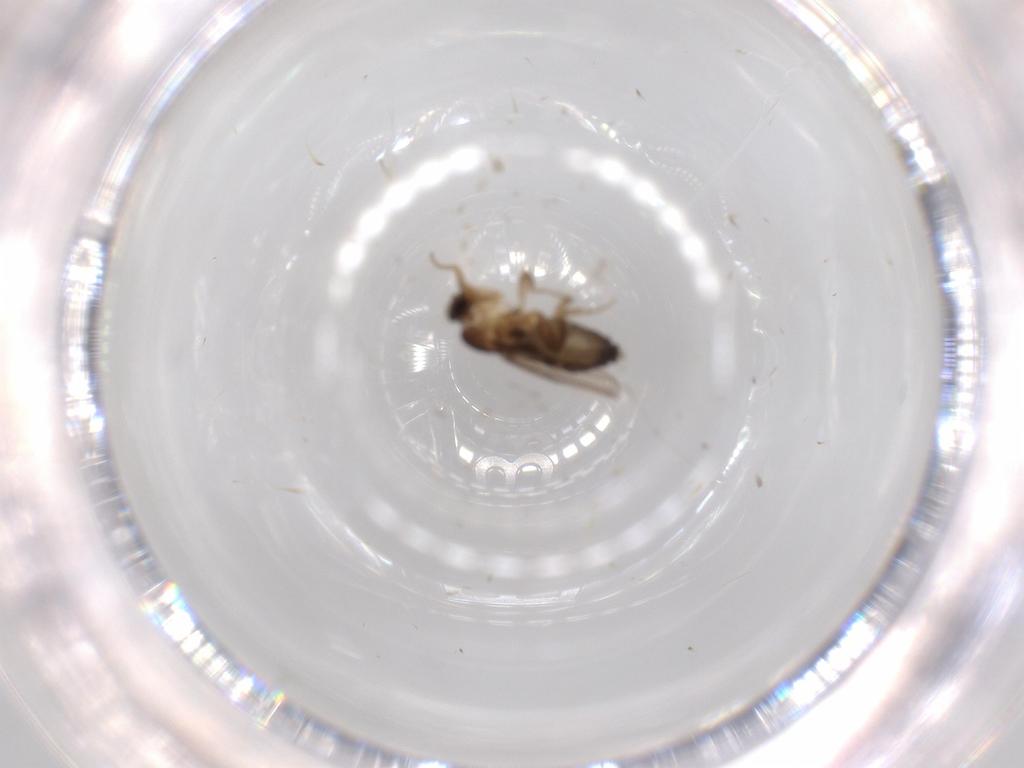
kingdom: Animalia
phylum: Arthropoda
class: Insecta
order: Diptera
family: Phoridae
